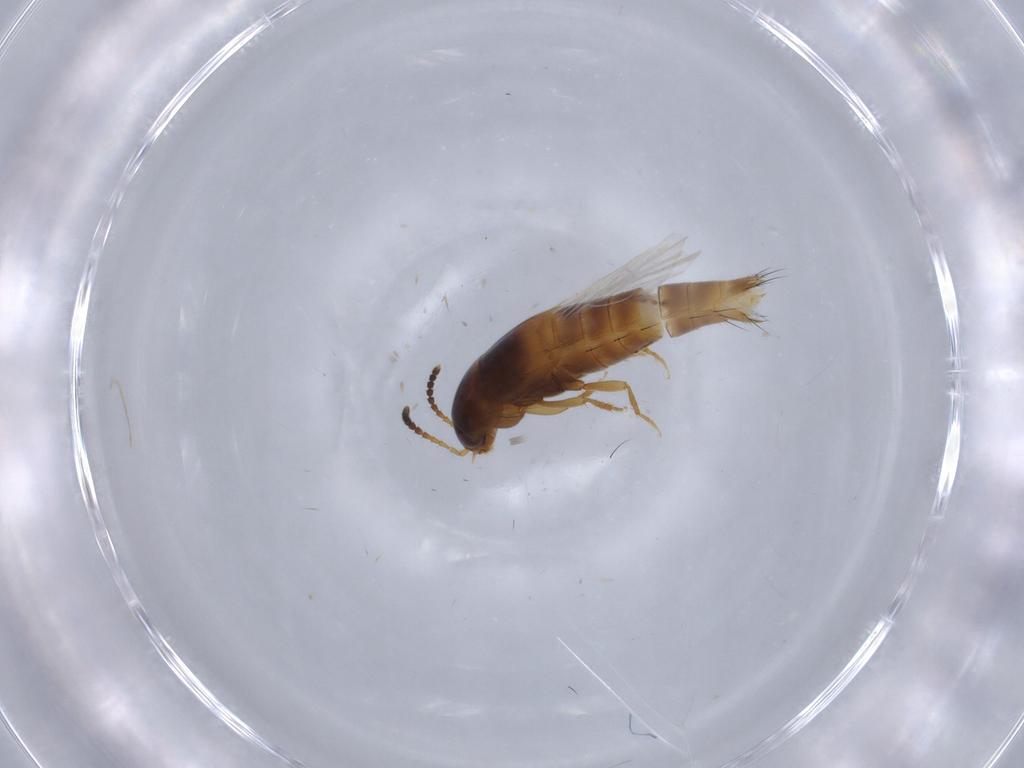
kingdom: Animalia
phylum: Arthropoda
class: Insecta
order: Coleoptera
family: Staphylinidae
